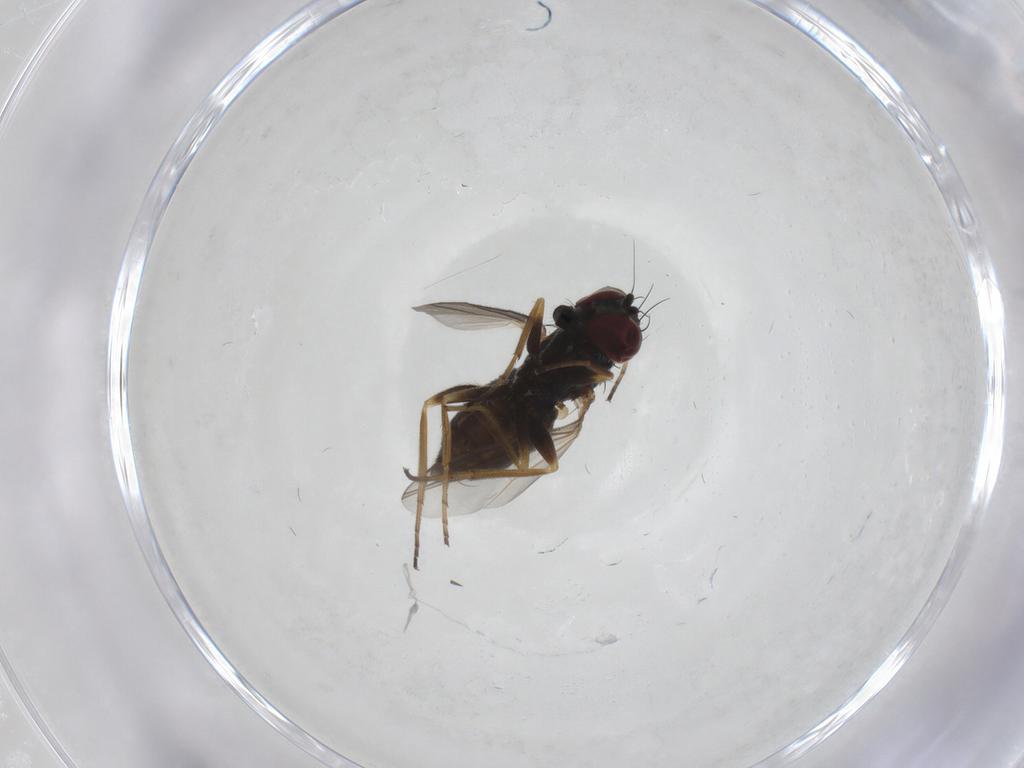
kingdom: Animalia
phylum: Arthropoda
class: Insecta
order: Diptera
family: Dolichopodidae
